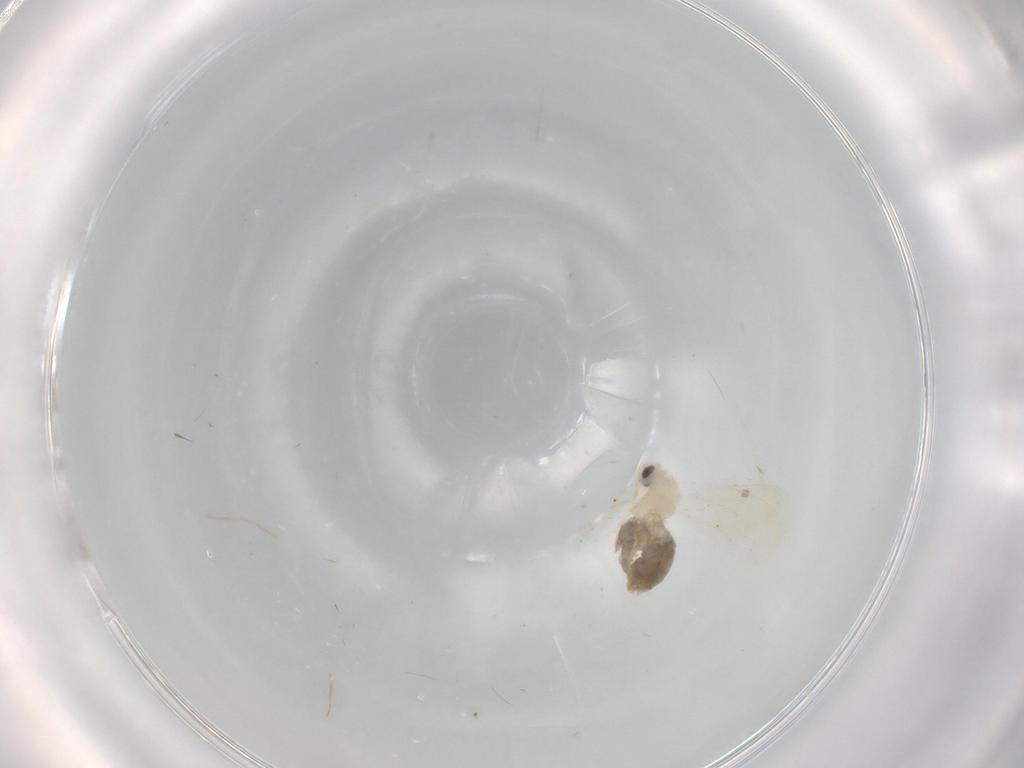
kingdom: Animalia
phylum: Arthropoda
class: Insecta
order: Hemiptera
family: Aleyrodidae
